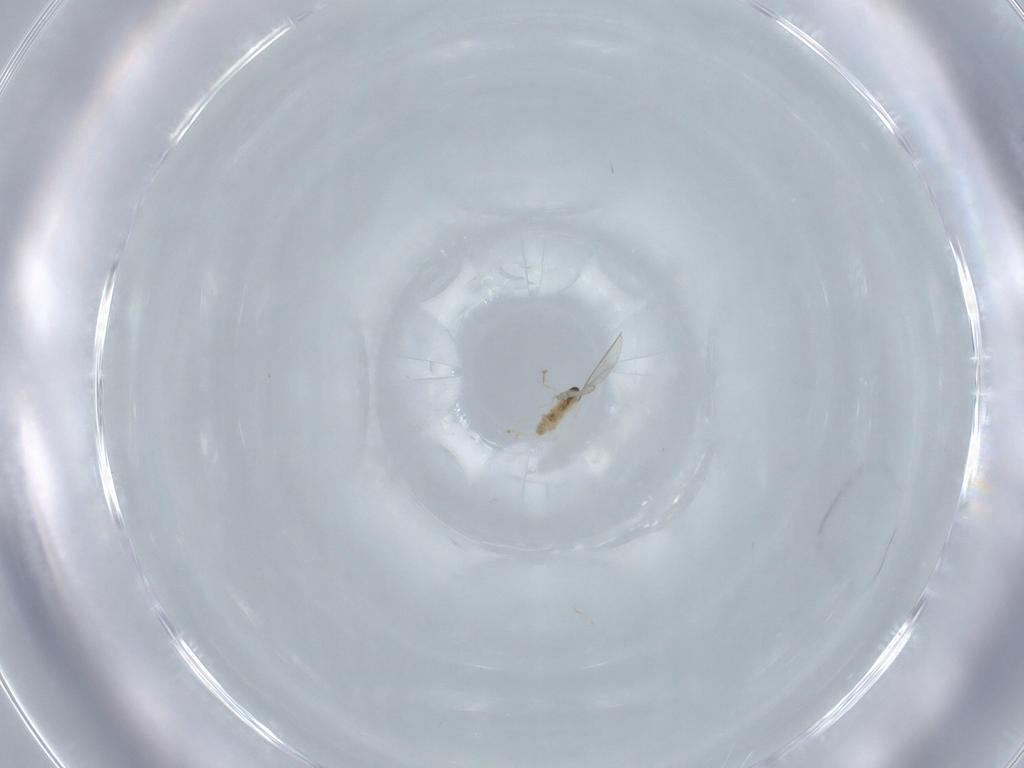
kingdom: Animalia
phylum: Arthropoda
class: Insecta
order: Diptera
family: Cecidomyiidae
